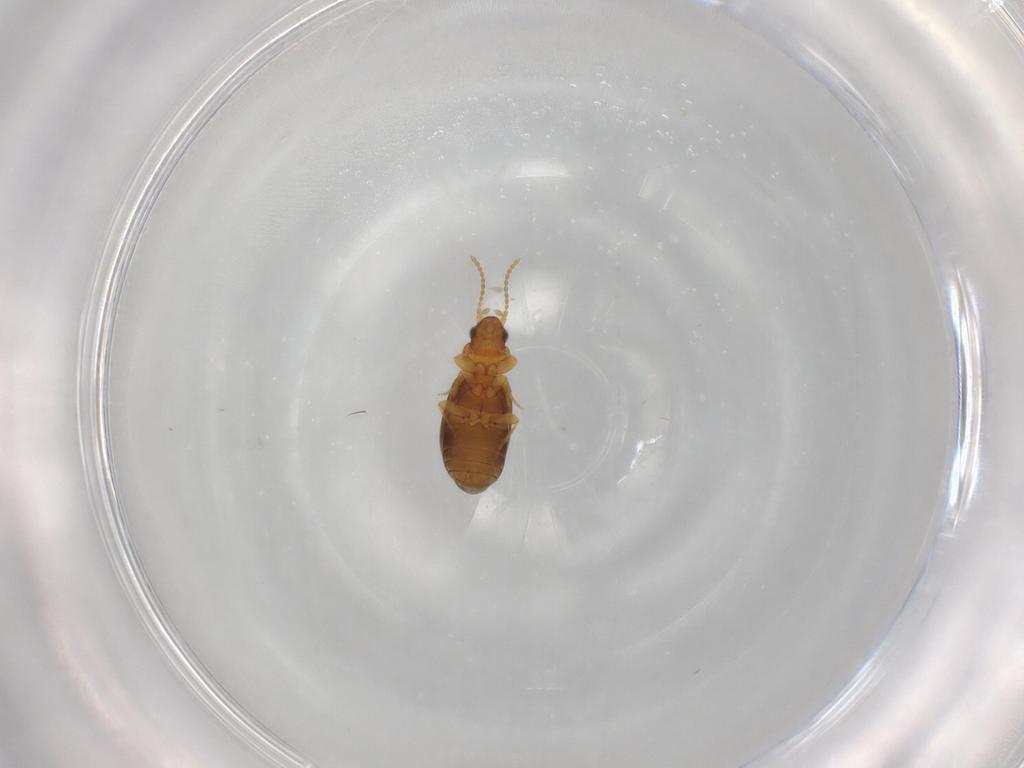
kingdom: Animalia
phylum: Arthropoda
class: Insecta
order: Coleoptera
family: Carabidae
